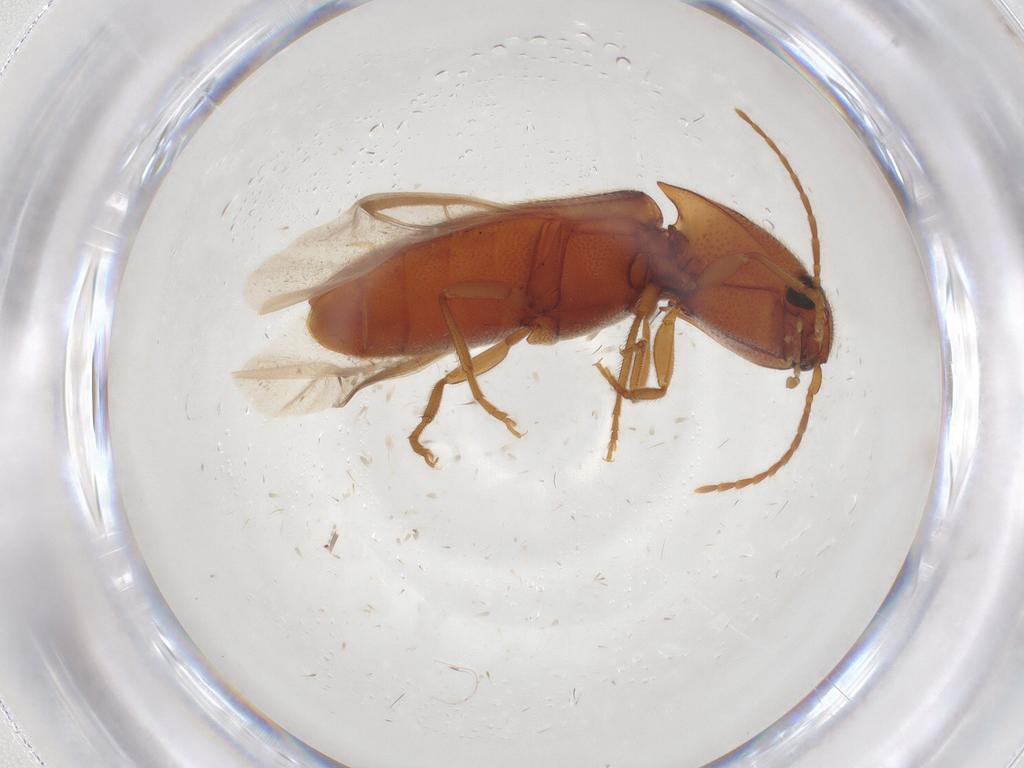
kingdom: Animalia
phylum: Arthropoda
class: Insecta
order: Coleoptera
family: Elateridae
